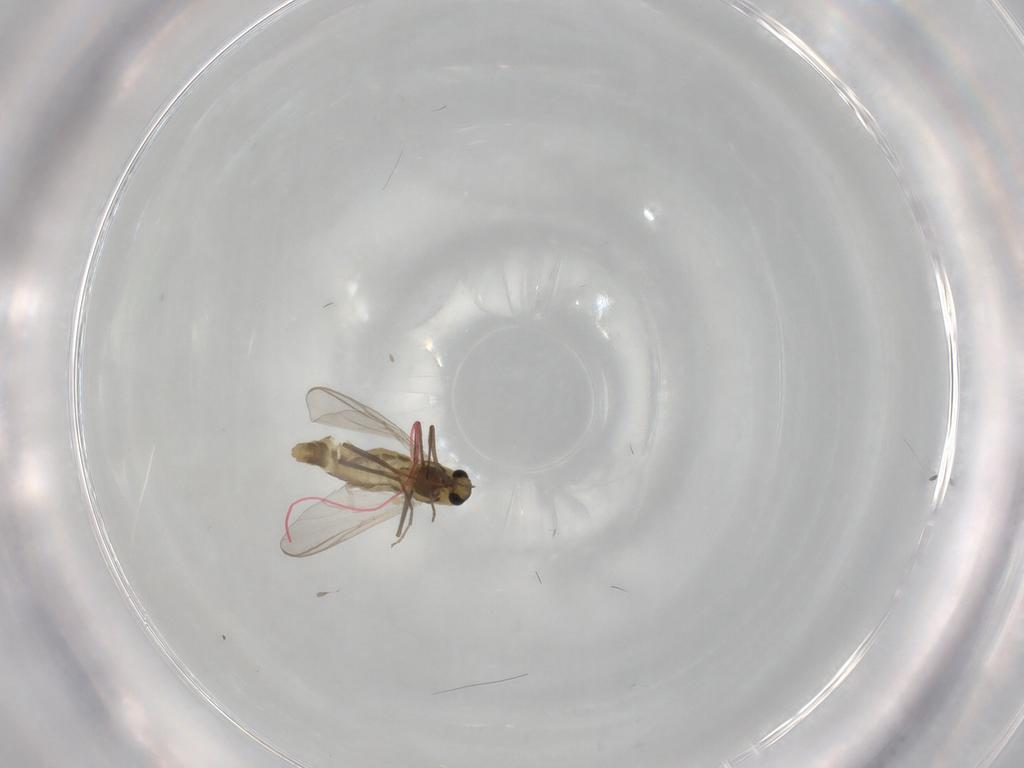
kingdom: Animalia
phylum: Arthropoda
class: Insecta
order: Diptera
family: Chironomidae
